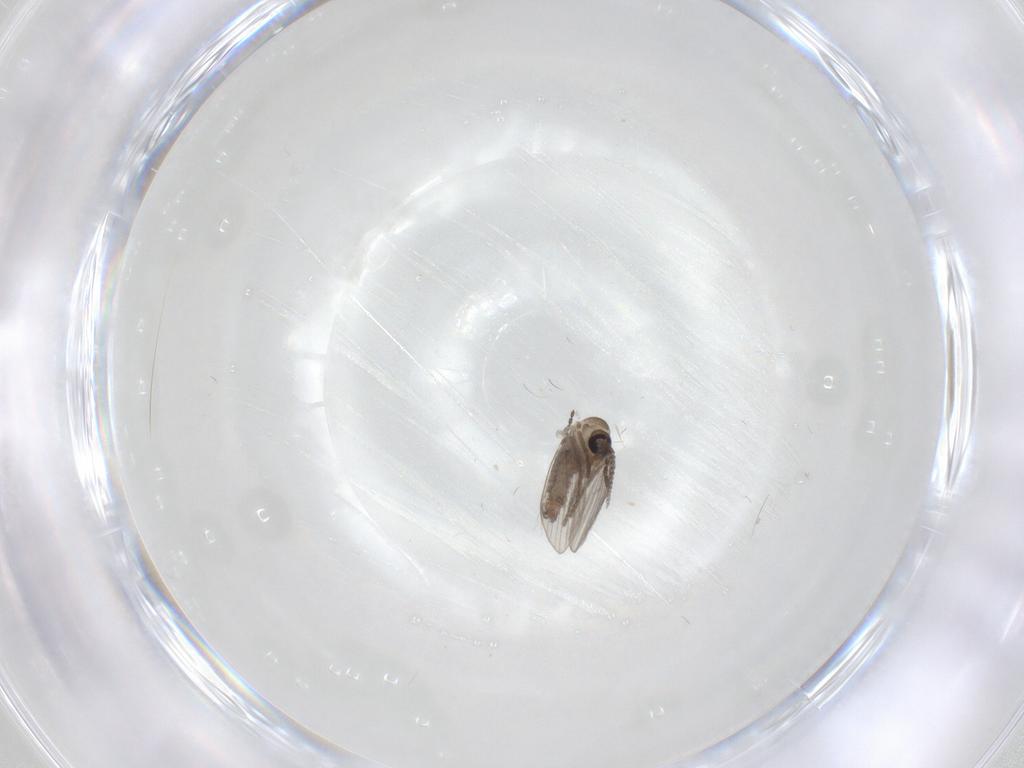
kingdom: Animalia
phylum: Arthropoda
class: Insecta
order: Diptera
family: Psychodidae
